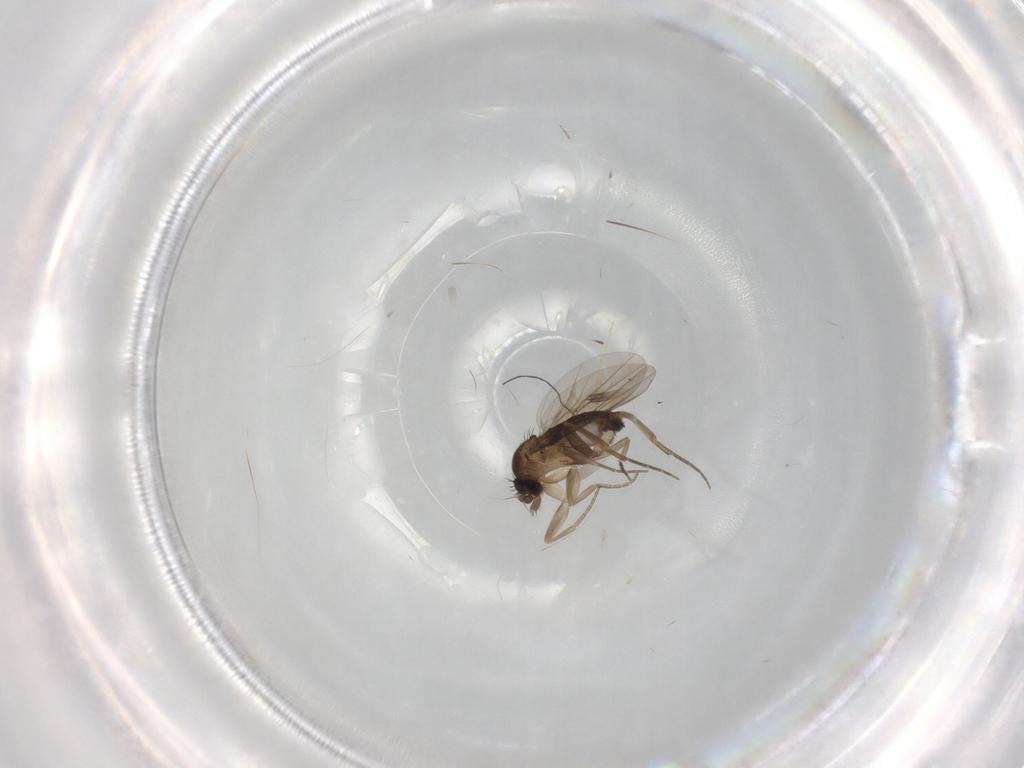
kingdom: Animalia
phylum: Arthropoda
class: Insecta
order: Diptera
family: Phoridae
